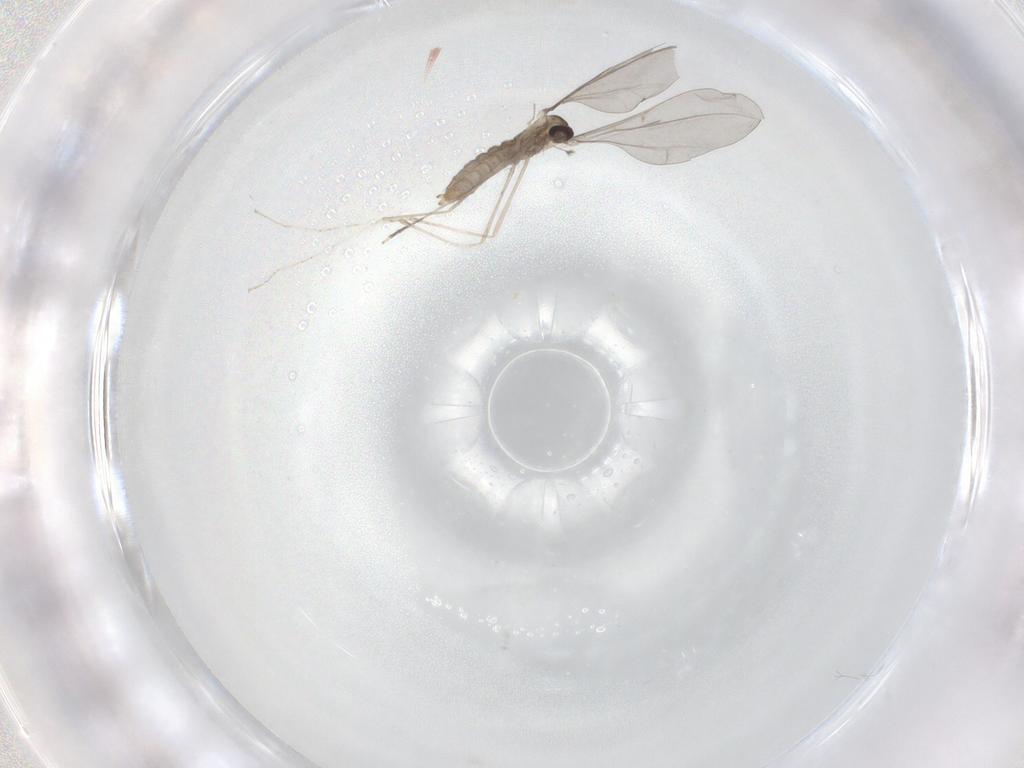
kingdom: Animalia
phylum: Arthropoda
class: Insecta
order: Diptera
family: Cecidomyiidae
